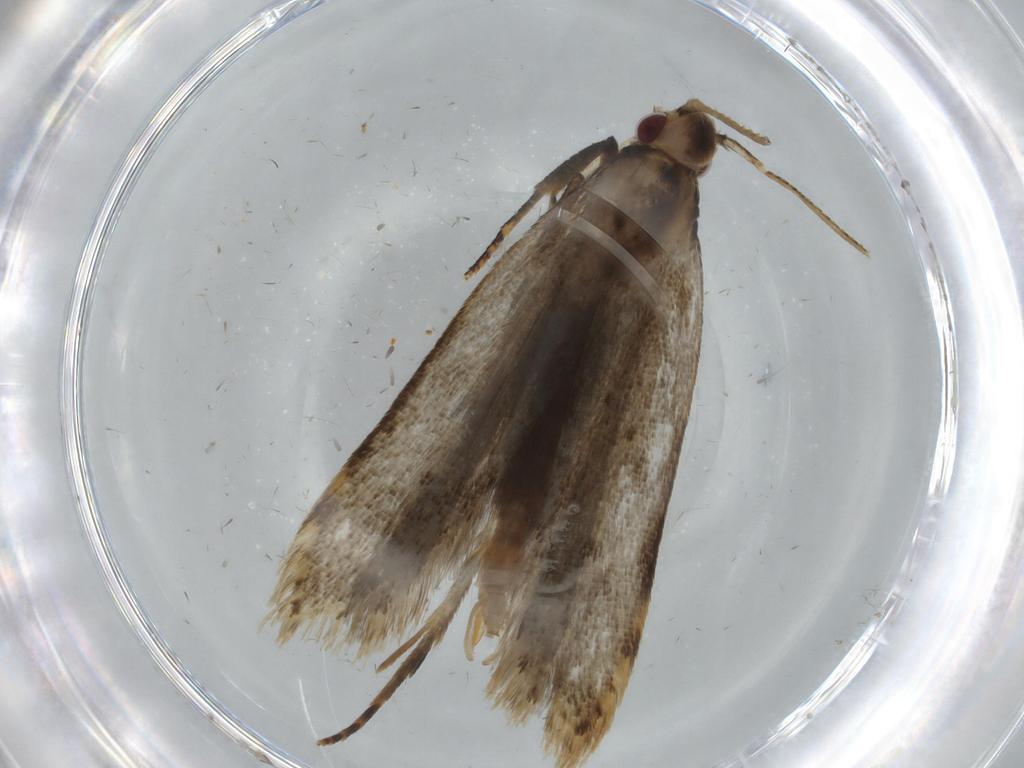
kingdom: Animalia
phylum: Arthropoda
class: Insecta
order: Lepidoptera
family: Gelechiidae
